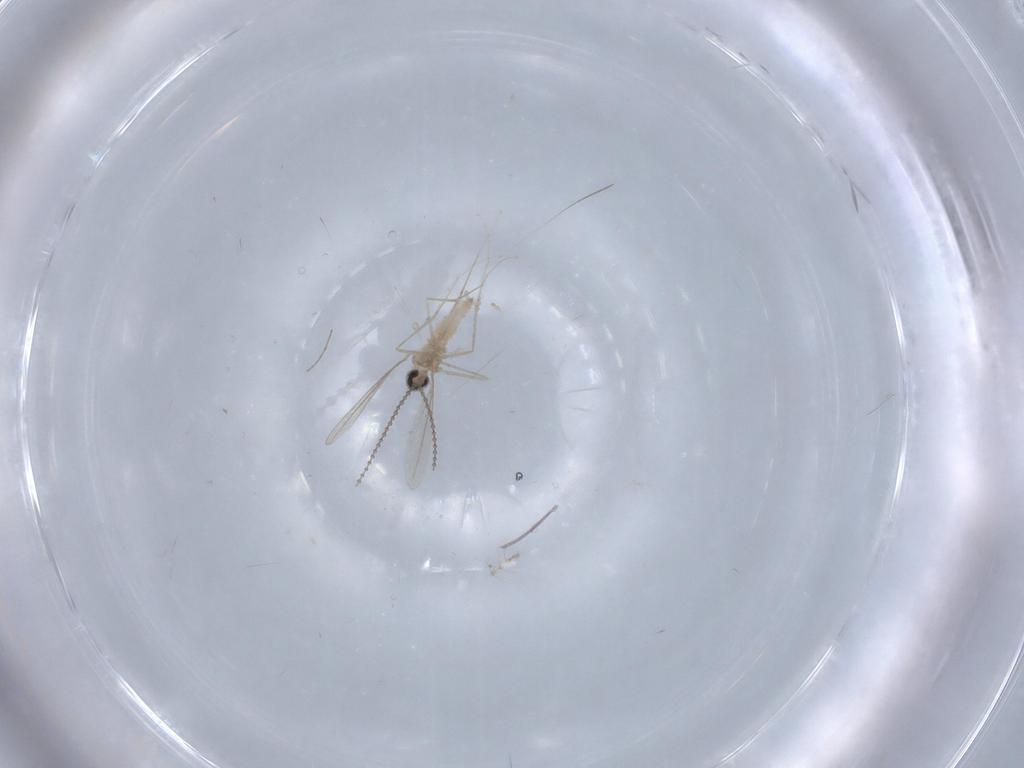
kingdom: Animalia
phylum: Arthropoda
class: Insecta
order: Diptera
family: Chironomidae
